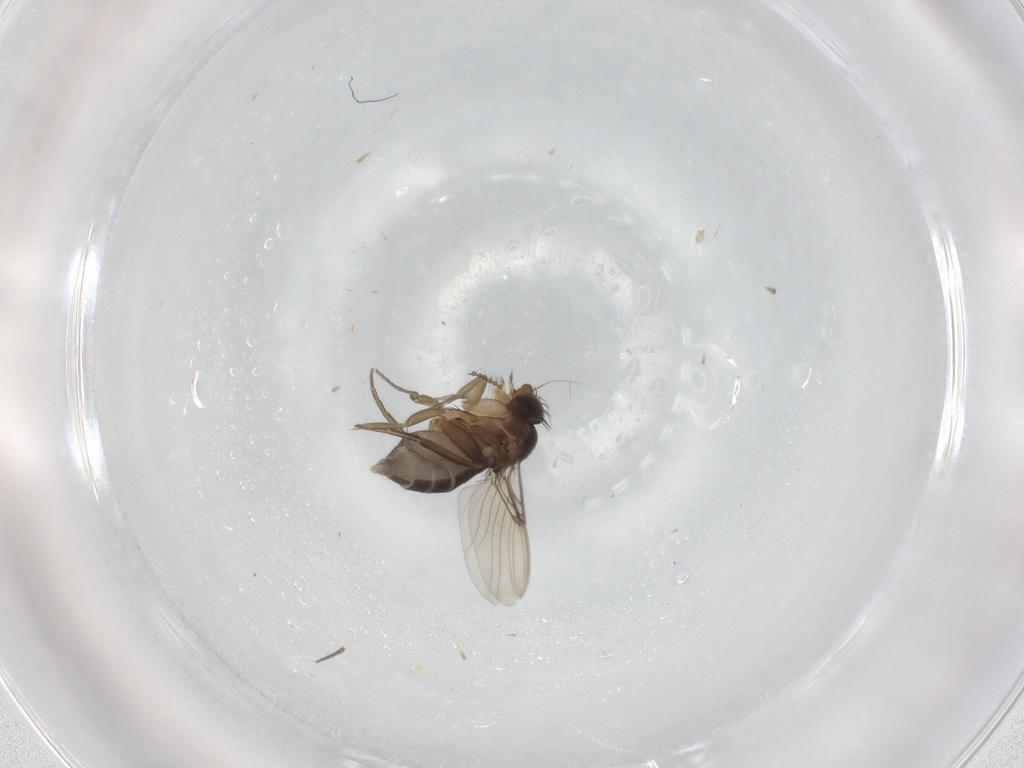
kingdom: Animalia
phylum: Arthropoda
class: Insecta
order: Diptera
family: Phoridae
